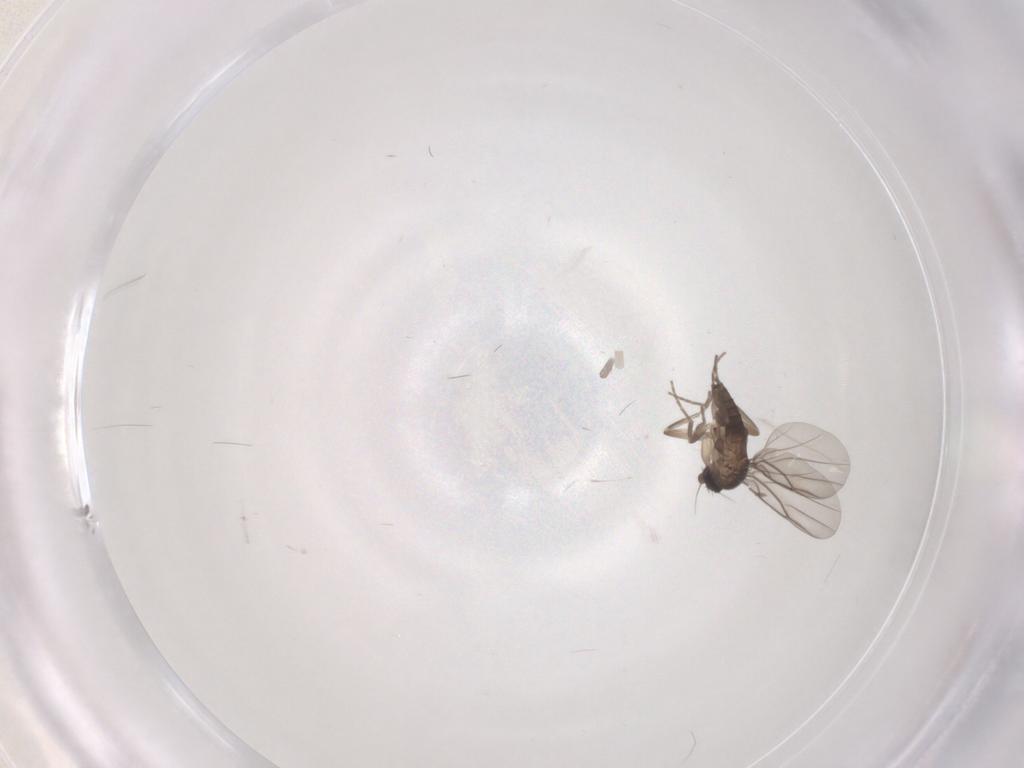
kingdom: Animalia
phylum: Arthropoda
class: Insecta
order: Diptera
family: Phoridae
